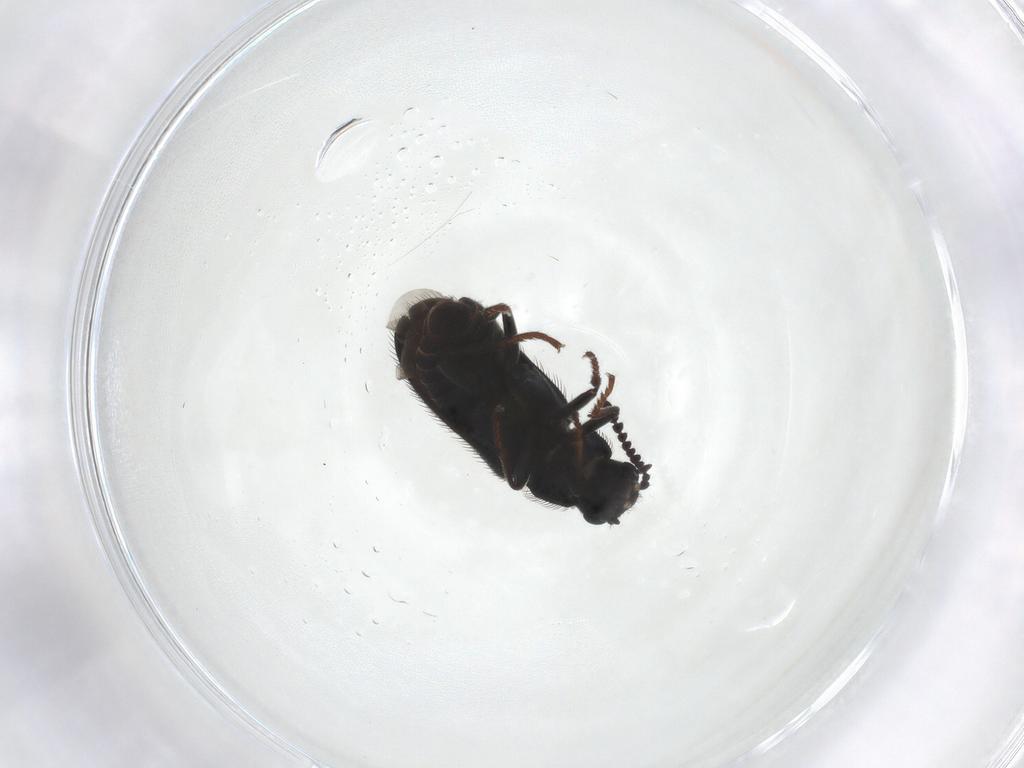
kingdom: Animalia
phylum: Arthropoda
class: Insecta
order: Coleoptera
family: Melyridae
